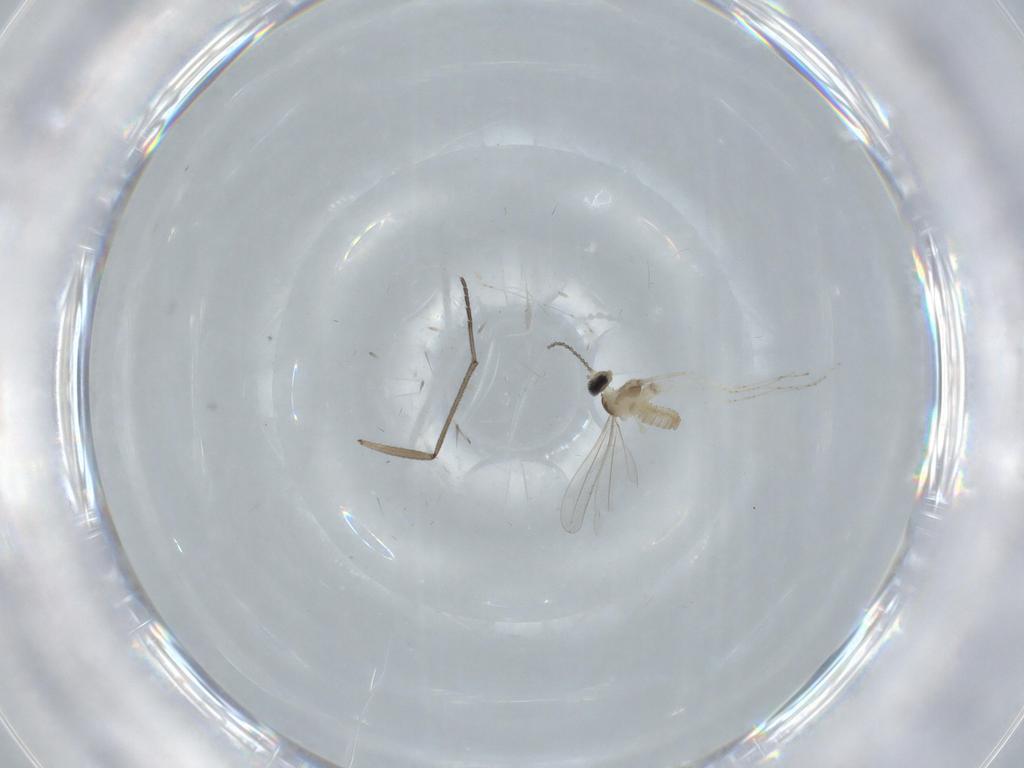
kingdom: Animalia
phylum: Arthropoda
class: Insecta
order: Diptera
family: Cecidomyiidae
